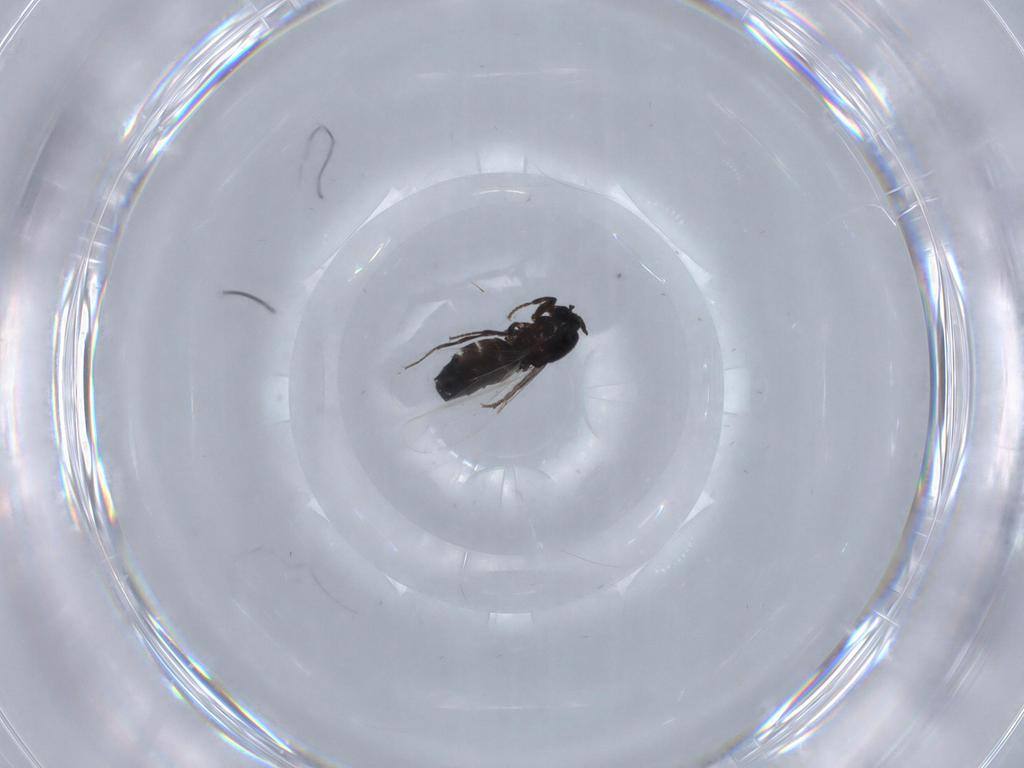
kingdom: Animalia
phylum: Arthropoda
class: Insecta
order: Diptera
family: Scatopsidae
